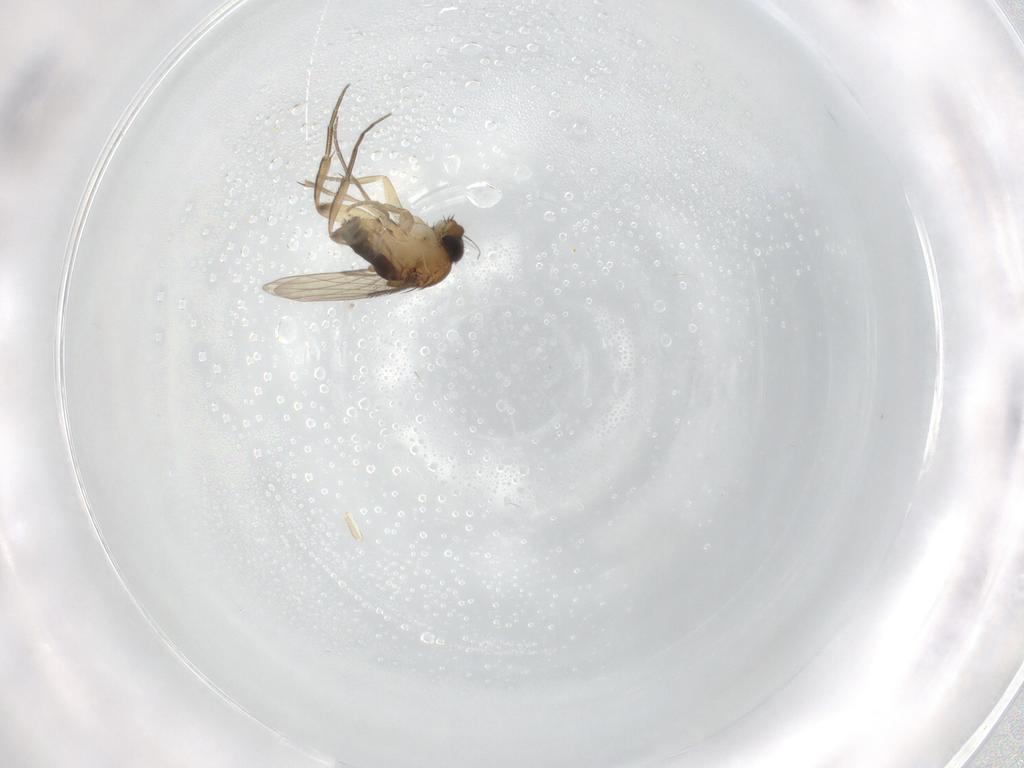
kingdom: Animalia
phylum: Arthropoda
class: Insecta
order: Diptera
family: Phoridae
